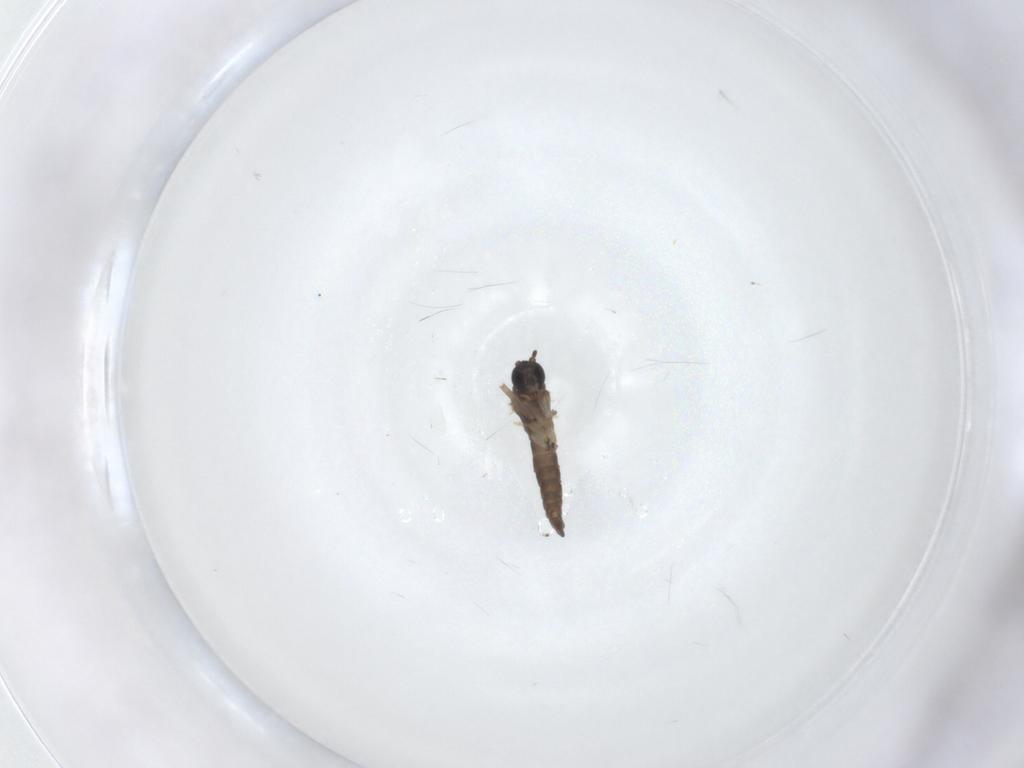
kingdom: Animalia
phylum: Arthropoda
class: Insecta
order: Diptera
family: Sciaridae
